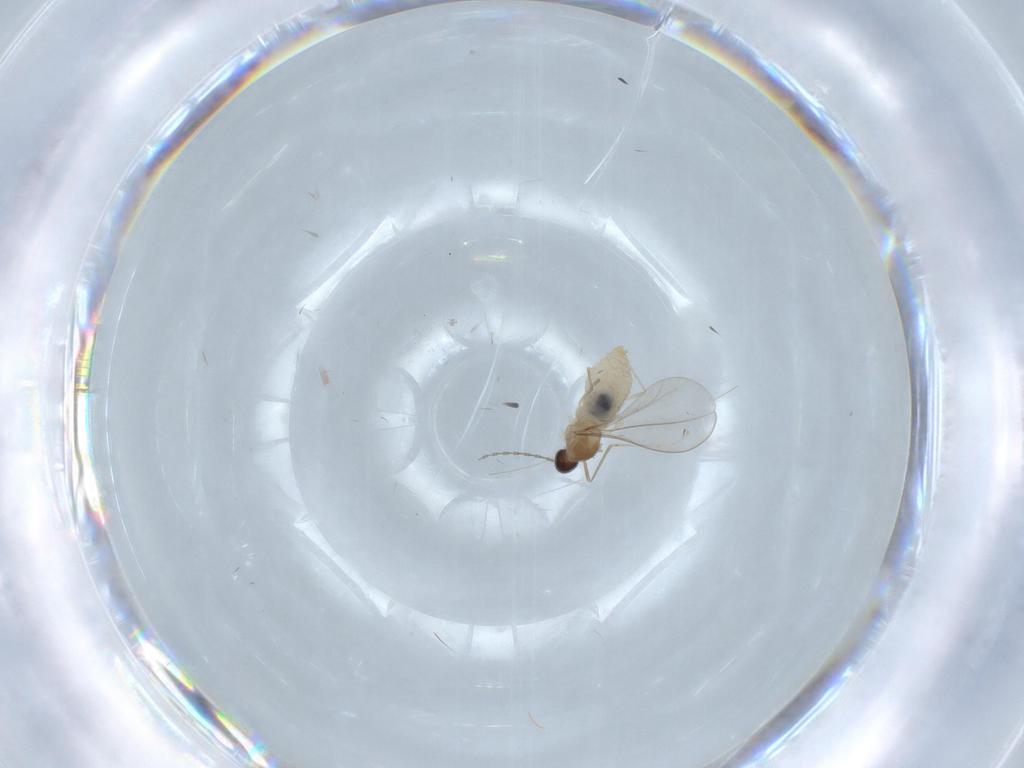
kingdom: Animalia
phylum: Arthropoda
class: Insecta
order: Diptera
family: Cecidomyiidae
